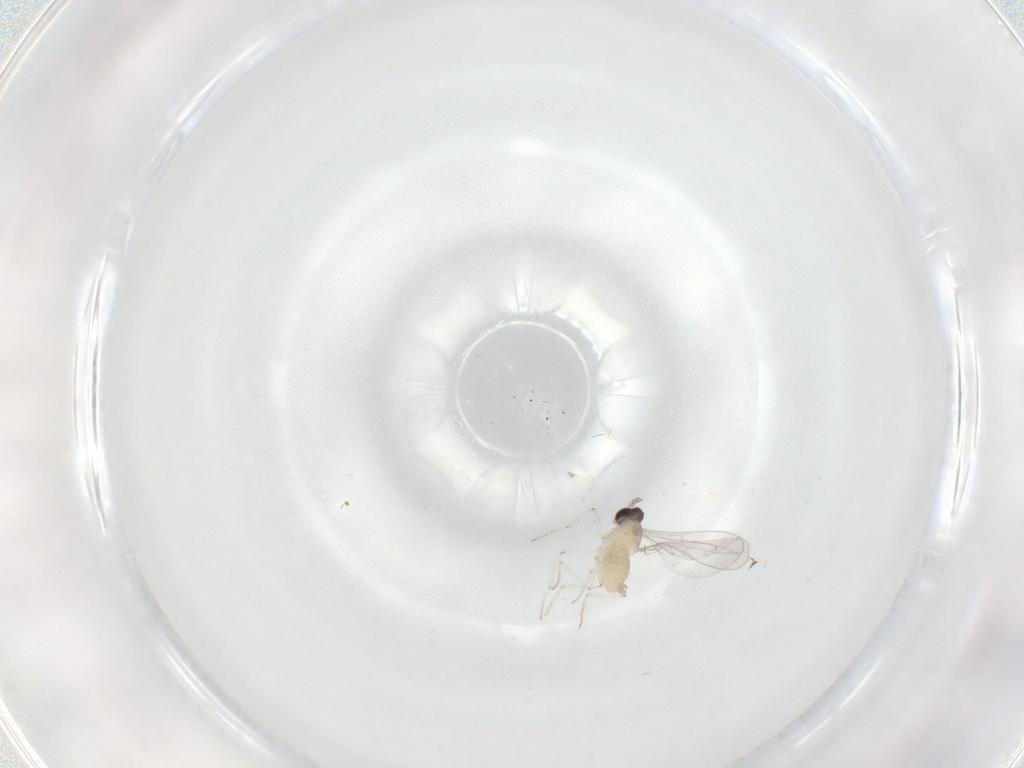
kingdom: Animalia
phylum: Arthropoda
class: Insecta
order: Diptera
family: Cecidomyiidae
